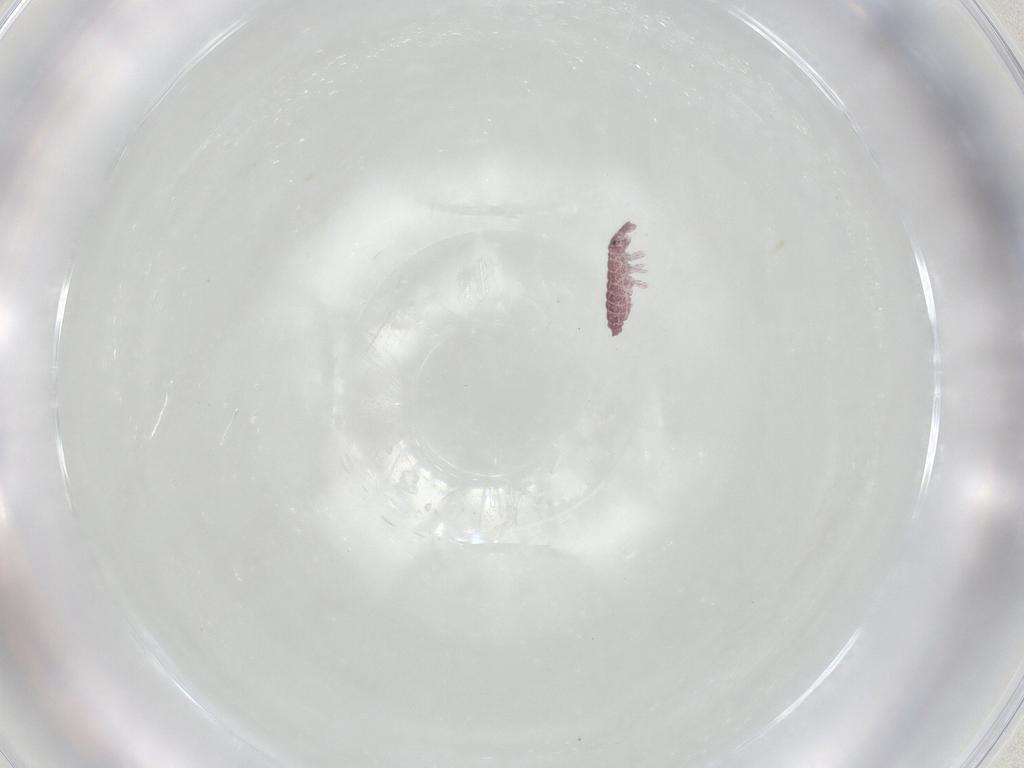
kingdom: Animalia
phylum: Arthropoda
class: Collembola
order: Poduromorpha
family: Hypogastruridae
